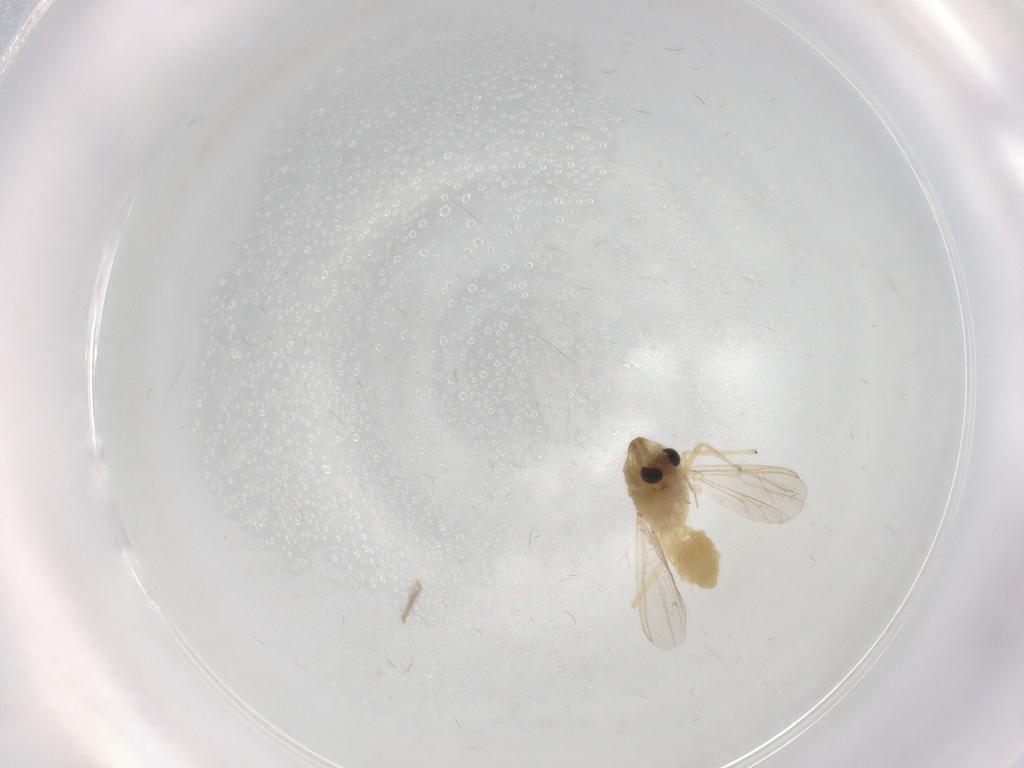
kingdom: Animalia
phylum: Arthropoda
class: Insecta
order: Diptera
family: Chironomidae
